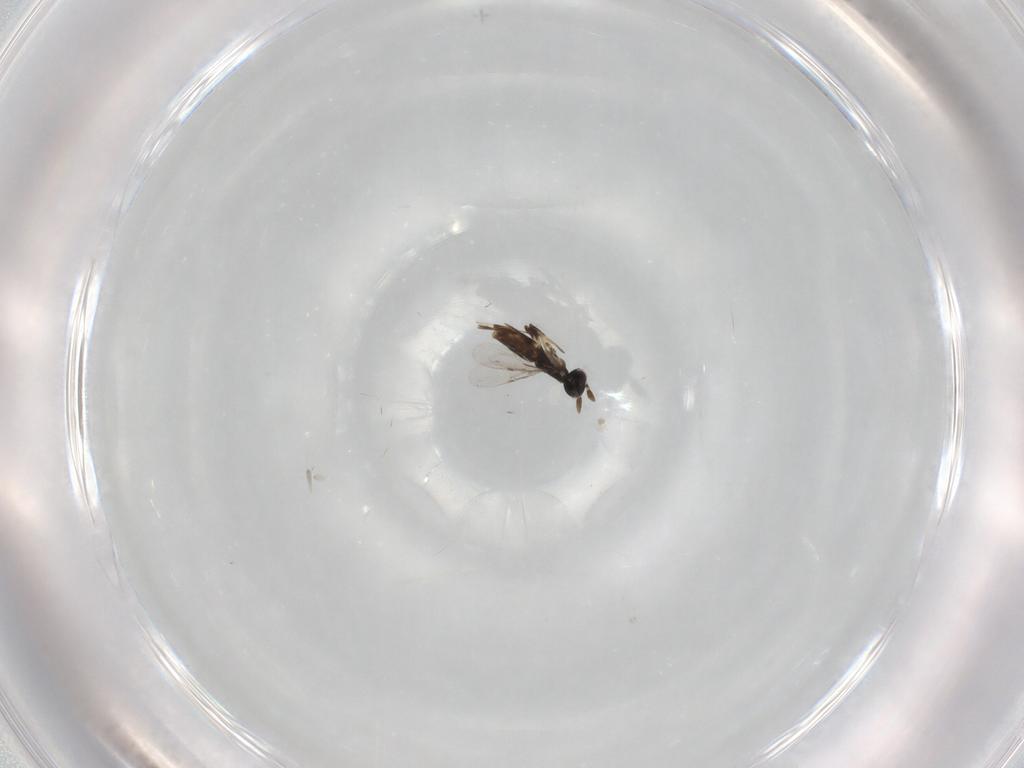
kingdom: Animalia
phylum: Arthropoda
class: Insecta
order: Hymenoptera
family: Encyrtidae
